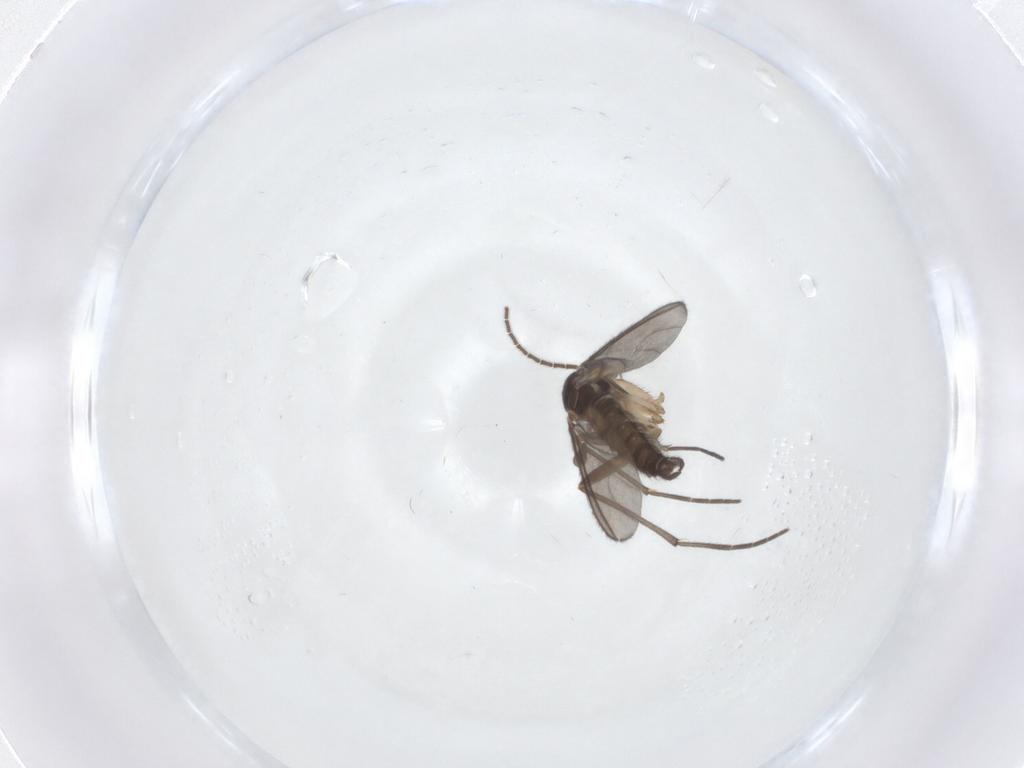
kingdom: Animalia
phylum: Arthropoda
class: Insecta
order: Diptera
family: Sciaridae
